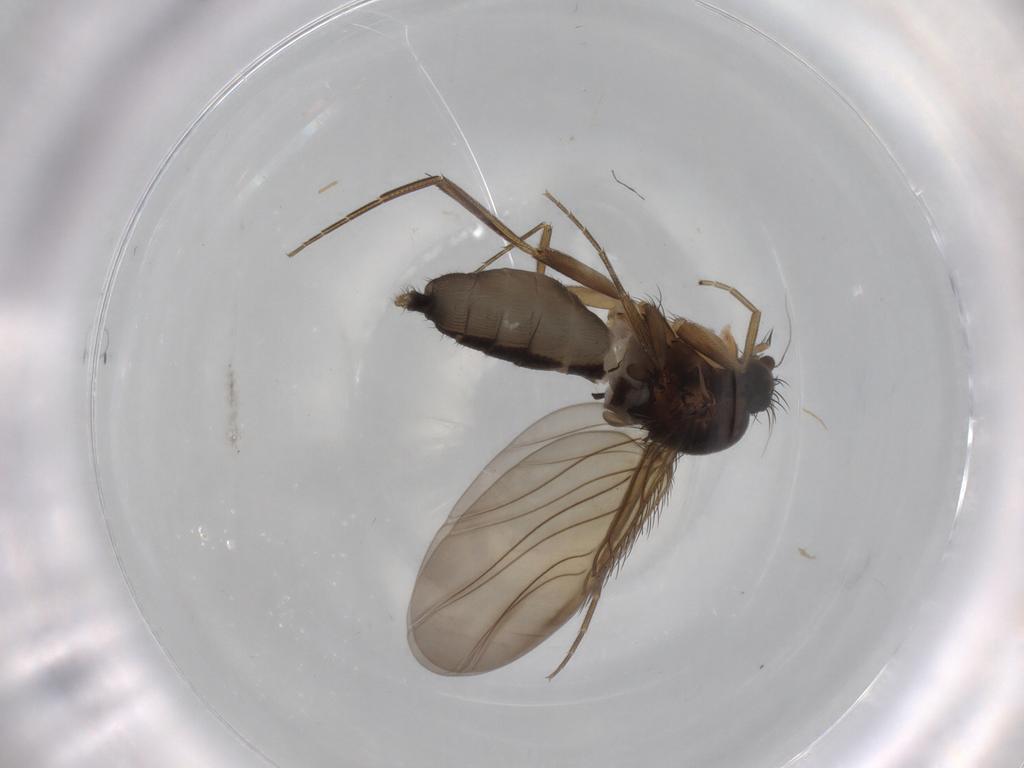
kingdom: Animalia
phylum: Arthropoda
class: Insecta
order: Diptera
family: Phoridae
